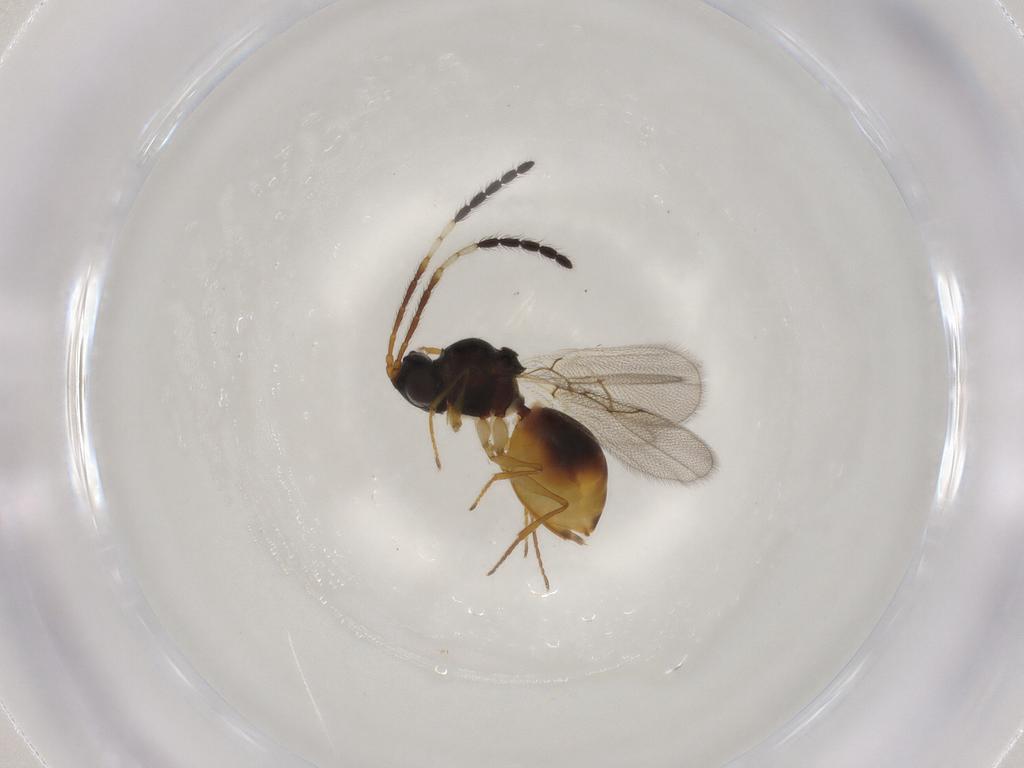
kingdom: Animalia
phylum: Arthropoda
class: Insecta
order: Hymenoptera
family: Figitidae
